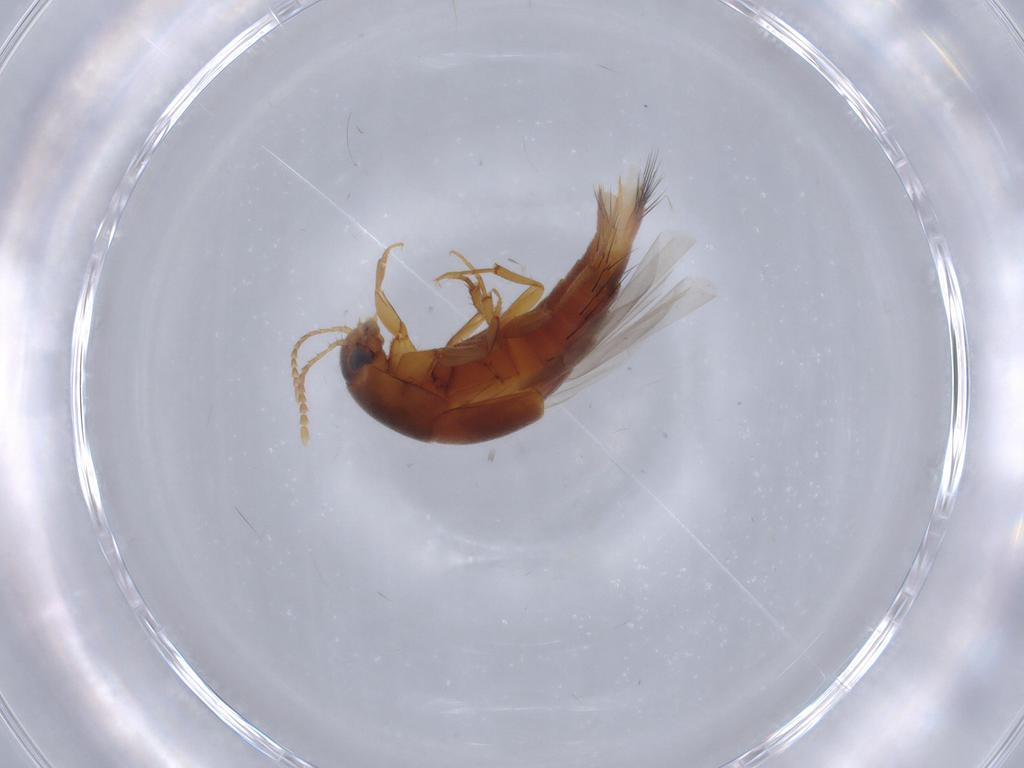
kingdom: Animalia
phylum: Arthropoda
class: Insecta
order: Coleoptera
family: Staphylinidae
